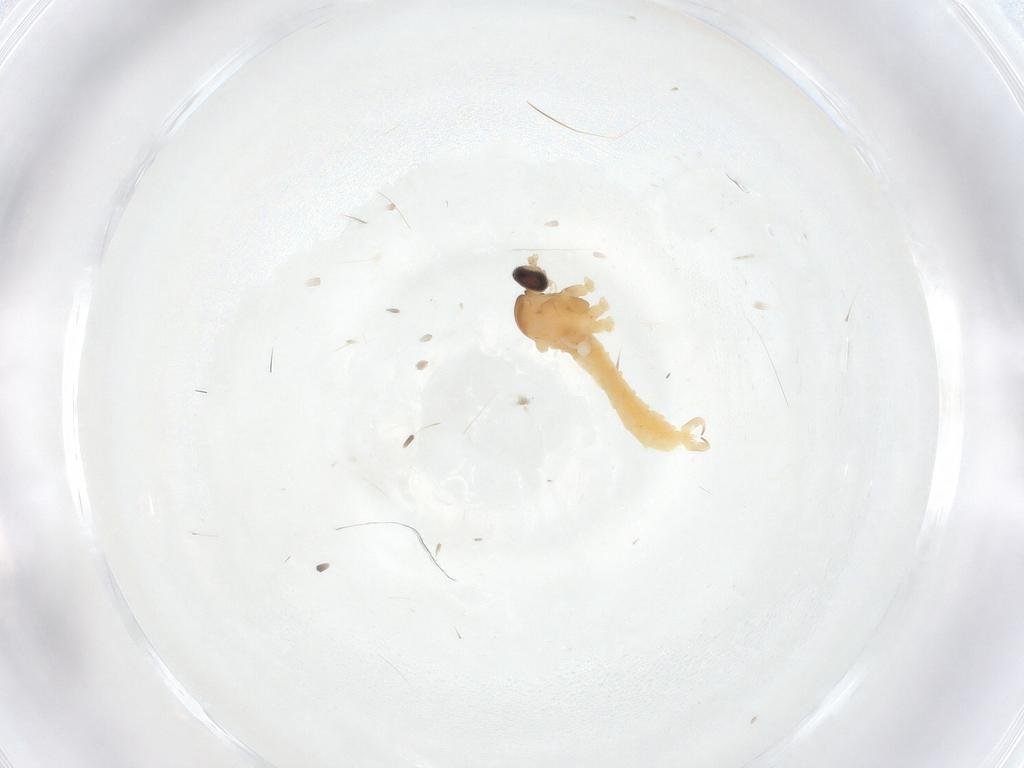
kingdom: Animalia
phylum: Arthropoda
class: Insecta
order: Diptera
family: Cecidomyiidae
